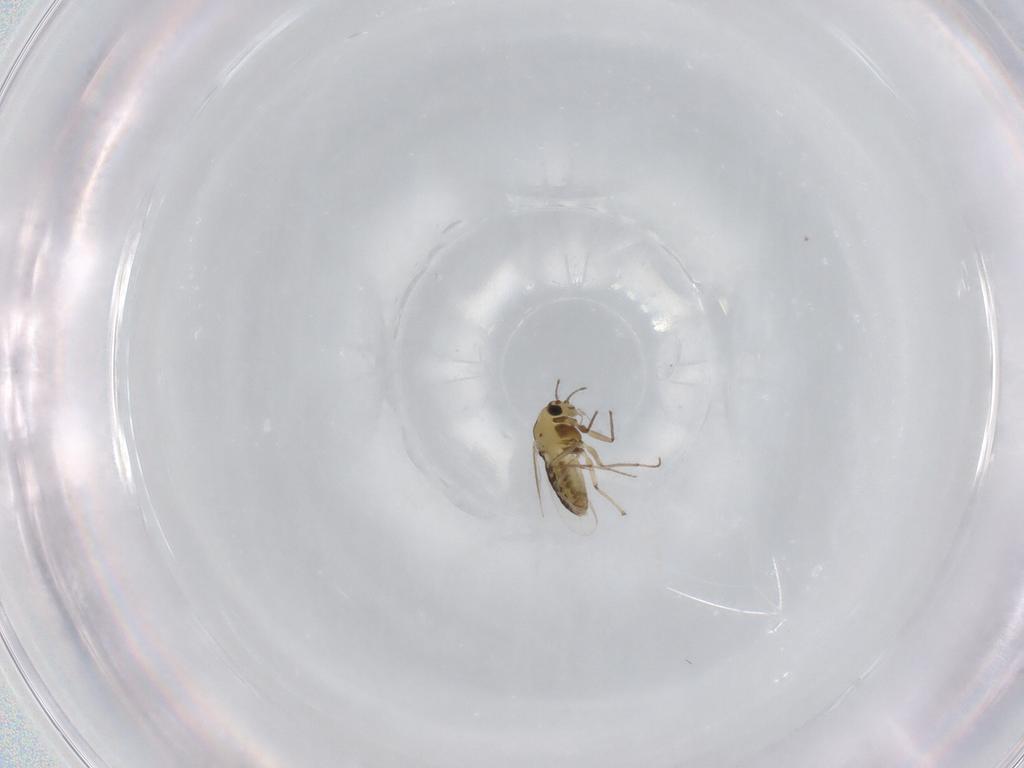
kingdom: Animalia
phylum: Arthropoda
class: Insecta
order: Diptera
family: Chironomidae
